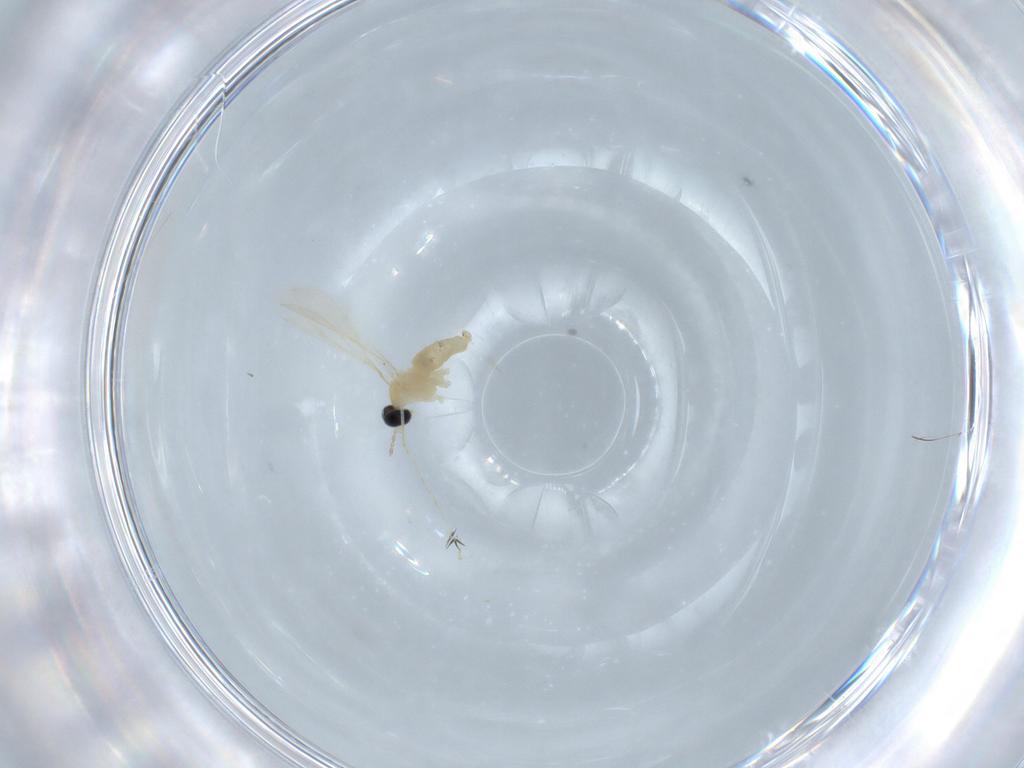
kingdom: Animalia
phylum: Arthropoda
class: Insecta
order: Diptera
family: Cecidomyiidae
